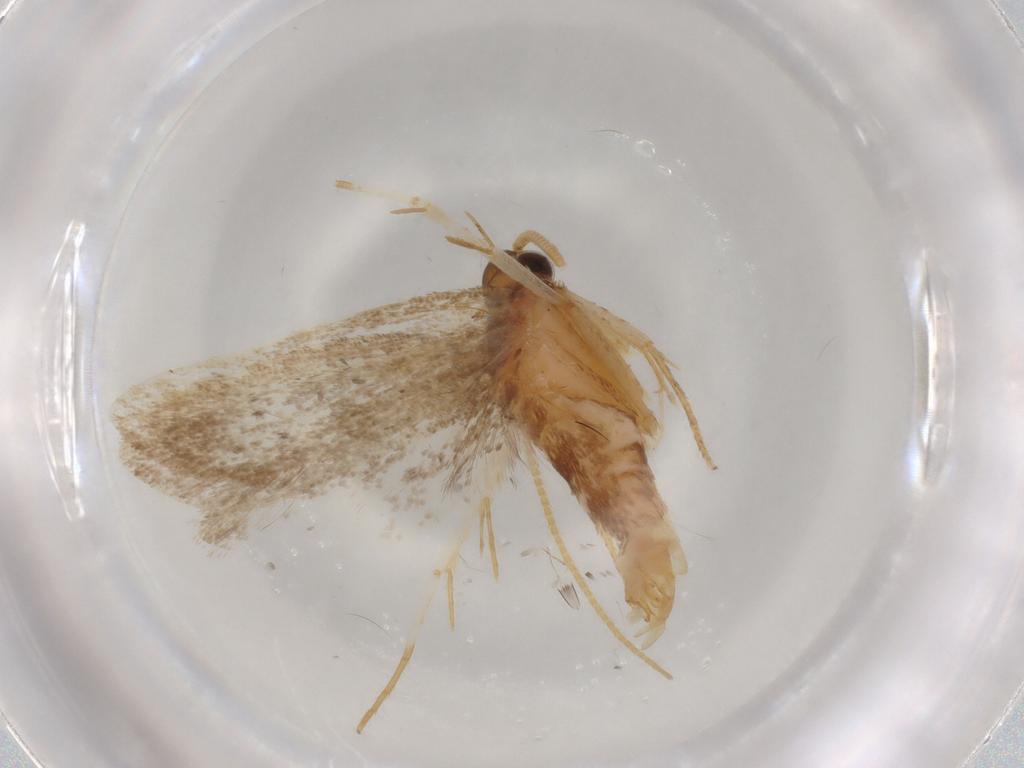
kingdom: Animalia
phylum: Arthropoda
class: Insecta
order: Lepidoptera
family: Lecithoceridae
